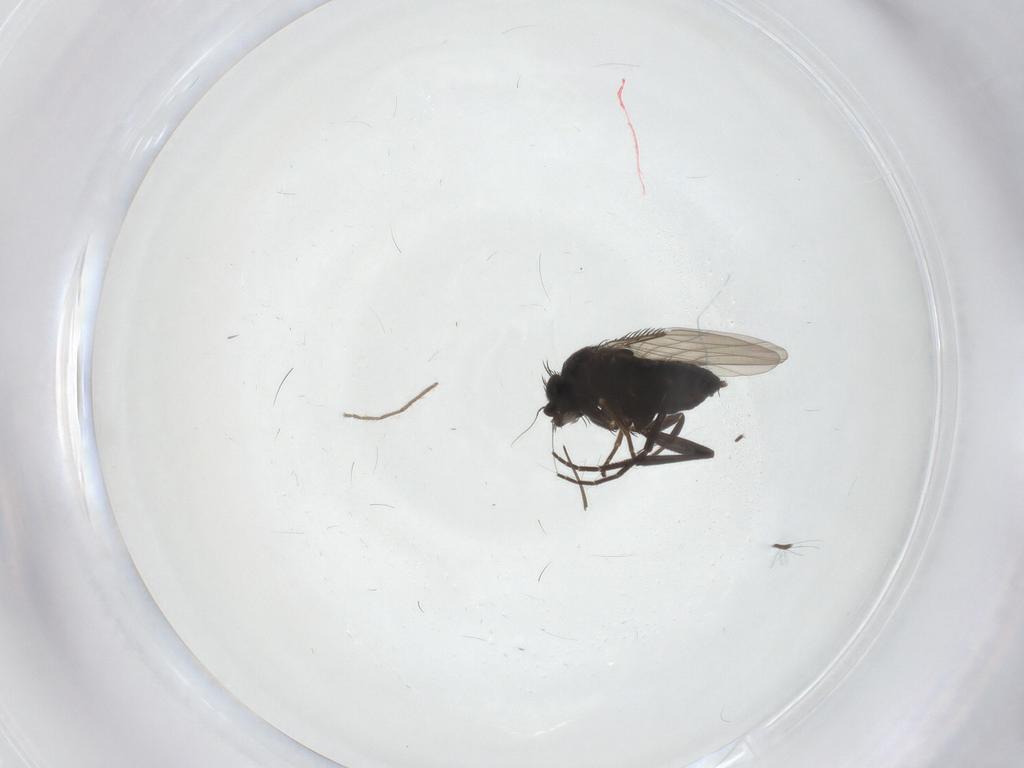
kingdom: Animalia
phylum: Arthropoda
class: Insecta
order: Diptera
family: Phoridae
